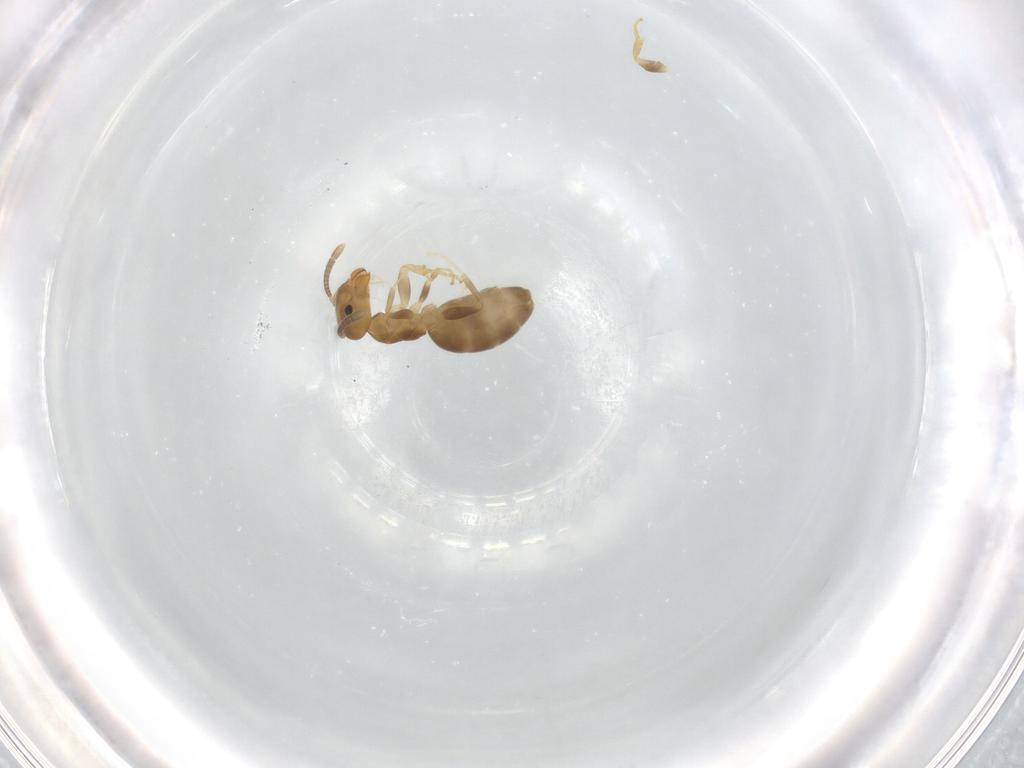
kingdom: Animalia
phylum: Arthropoda
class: Insecta
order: Hymenoptera
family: Formicidae
